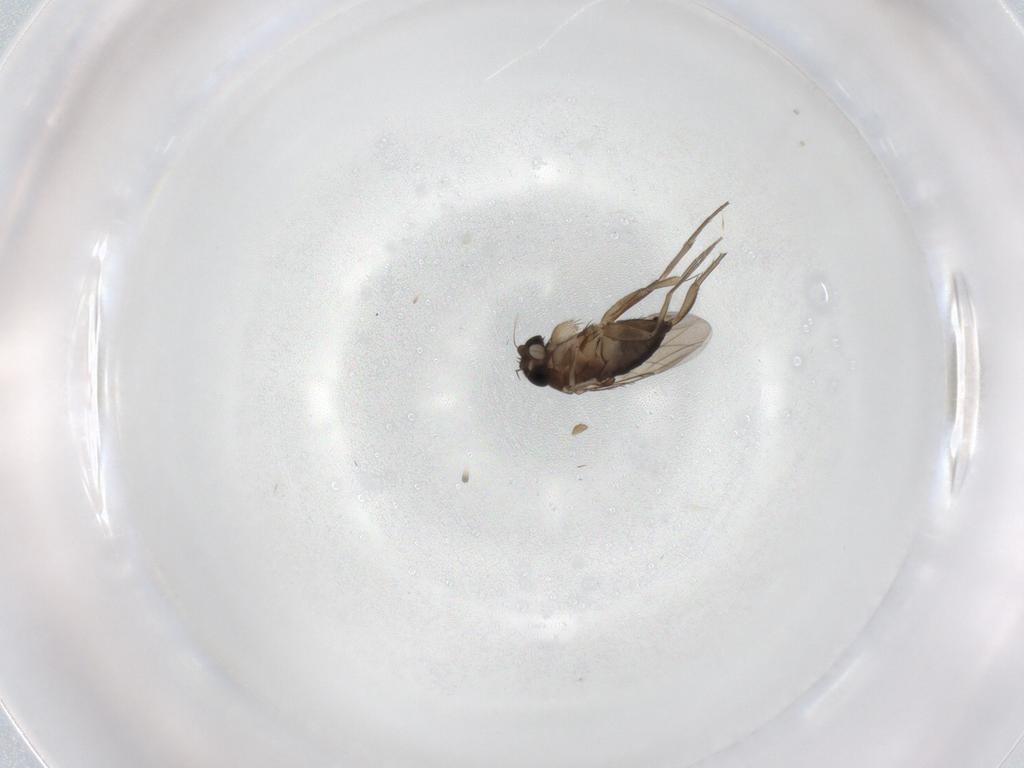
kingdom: Animalia
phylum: Arthropoda
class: Insecta
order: Diptera
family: Phoridae
